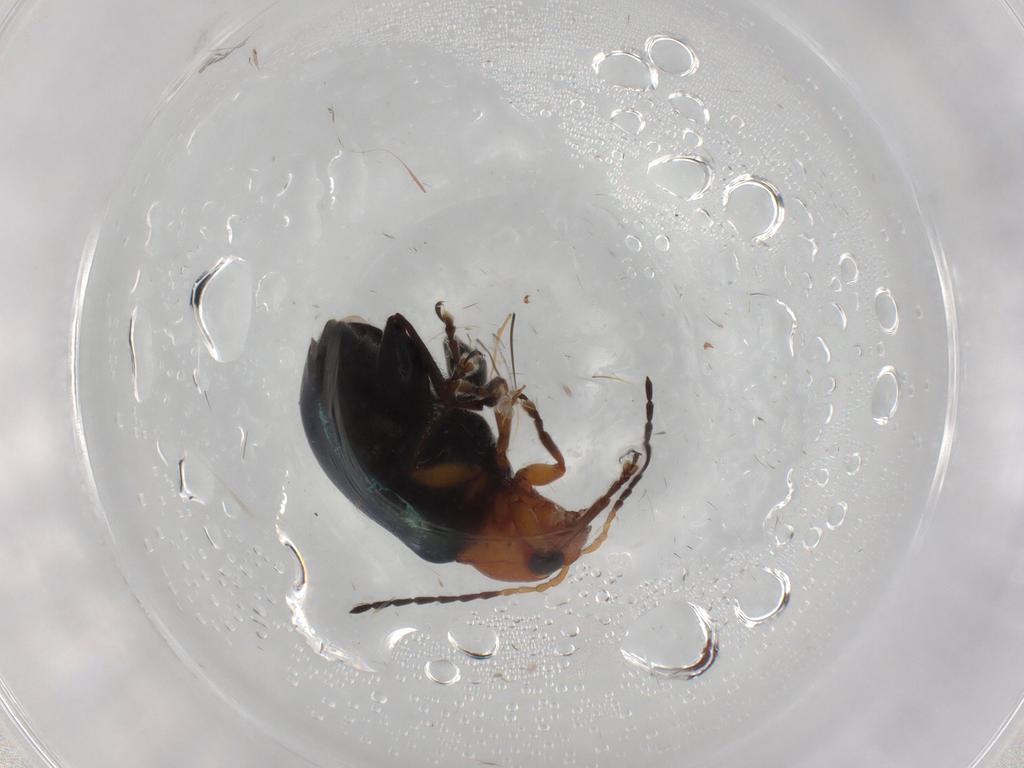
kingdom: Animalia
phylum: Arthropoda
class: Insecta
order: Coleoptera
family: Chrysomelidae
